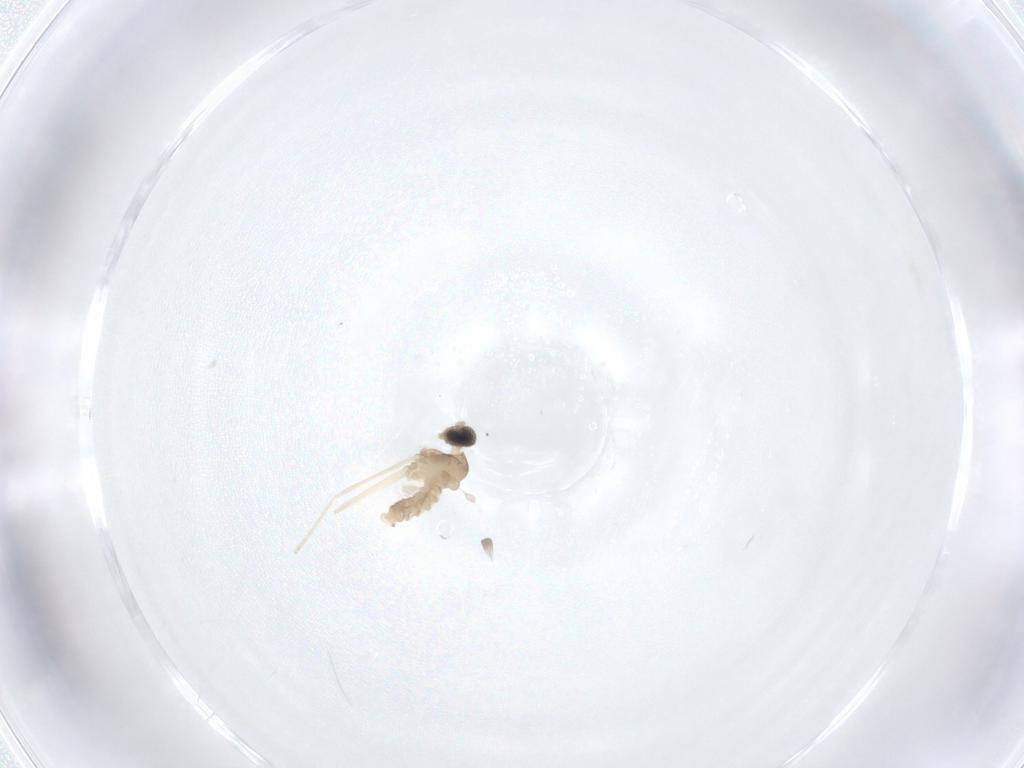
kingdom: Animalia
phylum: Arthropoda
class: Insecta
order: Diptera
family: Cecidomyiidae
